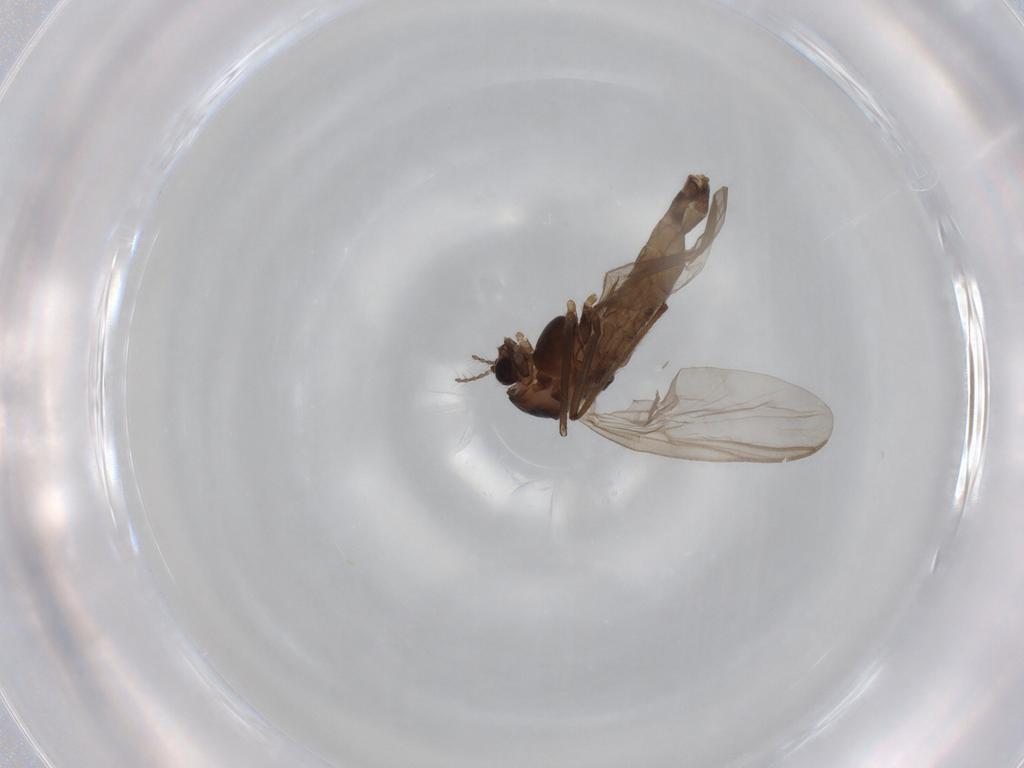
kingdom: Animalia
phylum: Arthropoda
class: Insecta
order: Diptera
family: Chironomidae
